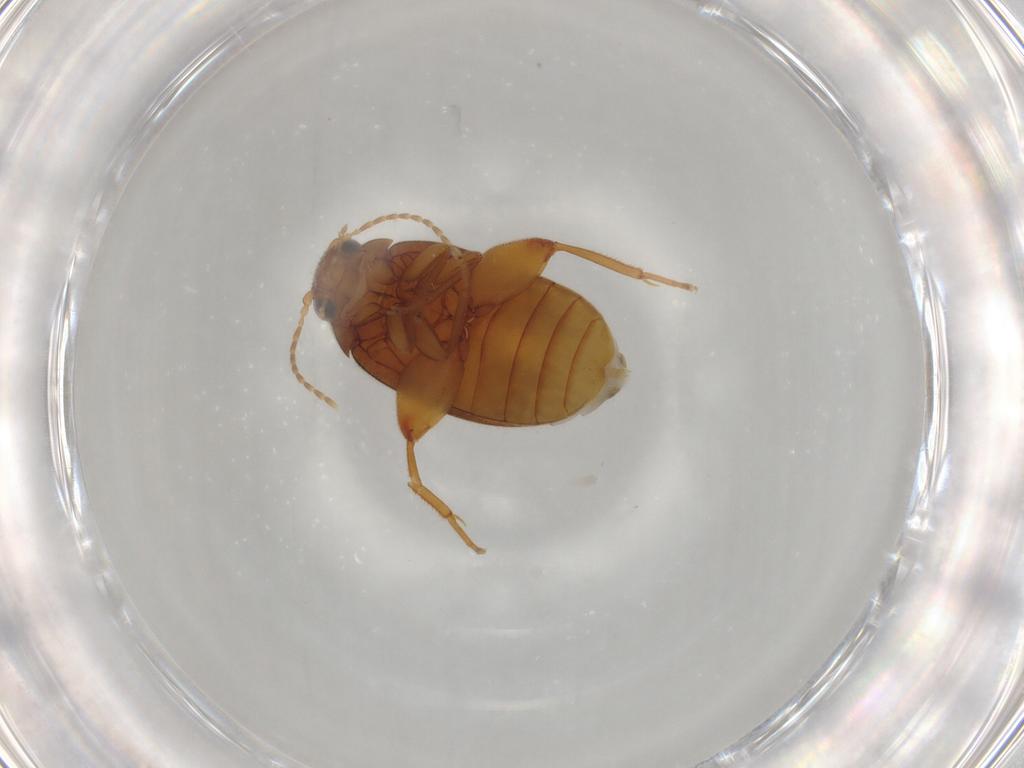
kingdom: Animalia
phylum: Arthropoda
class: Insecta
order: Coleoptera
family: Scirtidae
